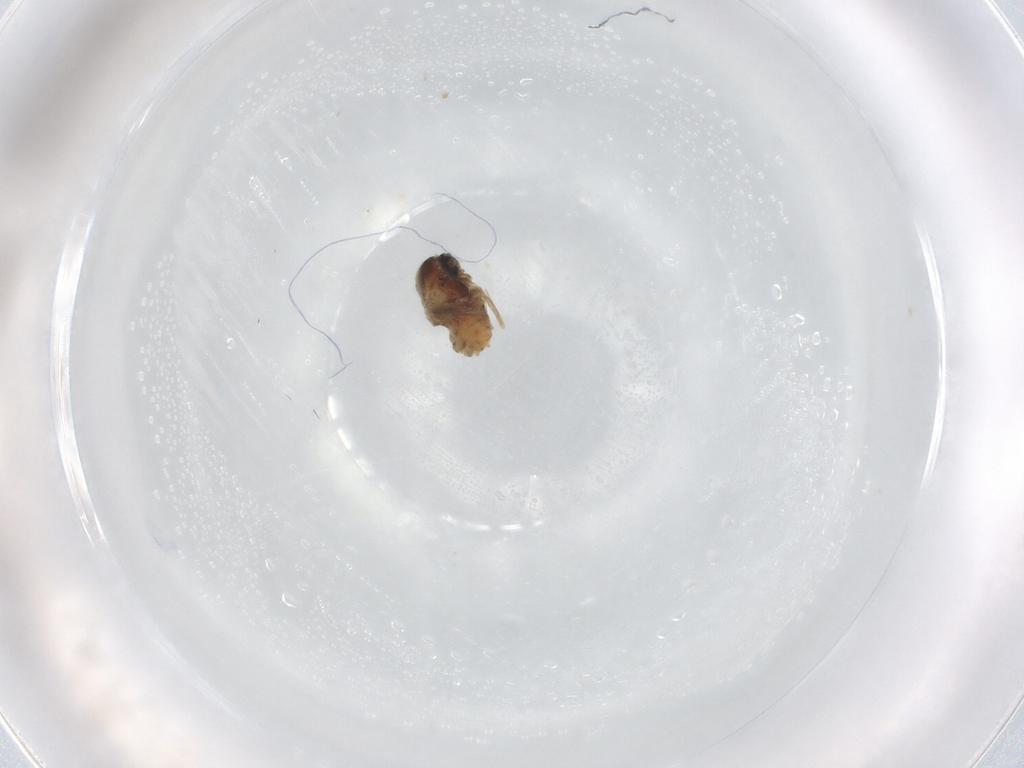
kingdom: Animalia
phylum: Arthropoda
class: Insecta
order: Diptera
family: Cecidomyiidae
